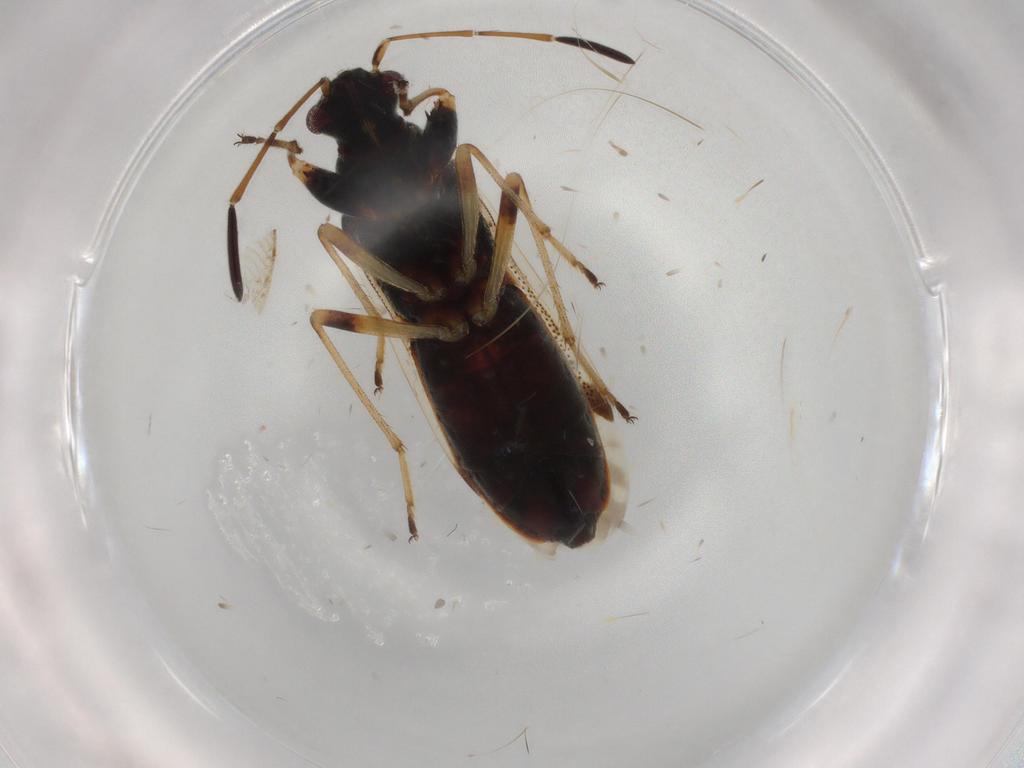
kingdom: Animalia
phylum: Arthropoda
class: Insecta
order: Hemiptera
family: Rhyparochromidae
